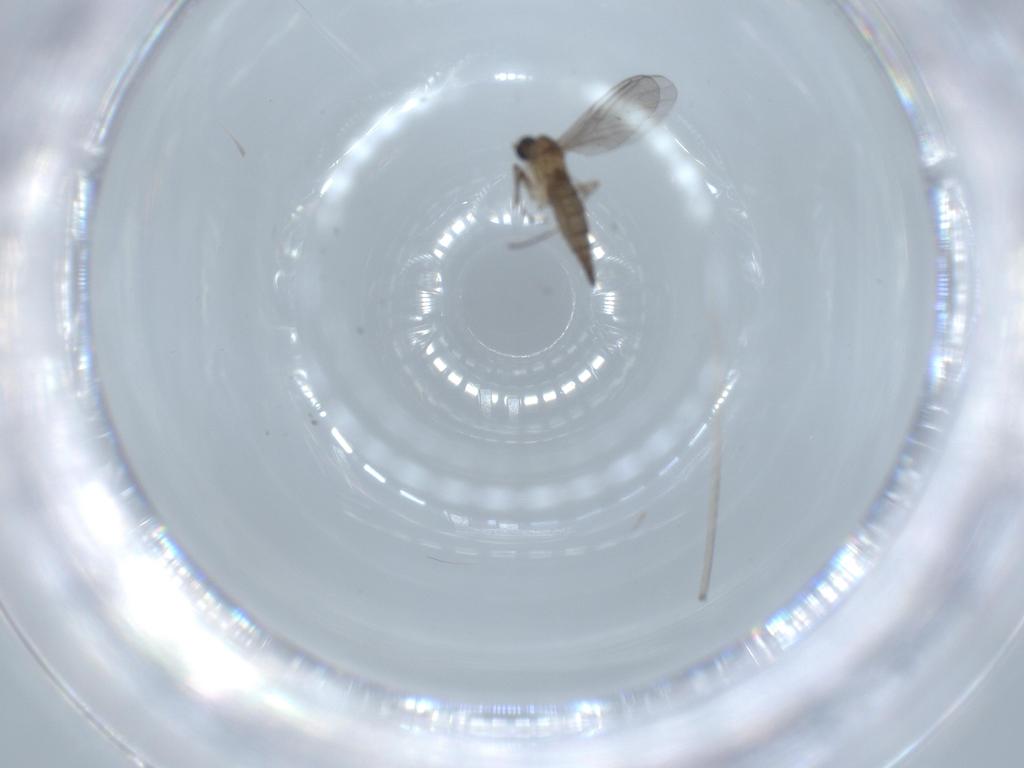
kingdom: Animalia
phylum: Arthropoda
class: Insecta
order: Diptera
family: Sciaridae
